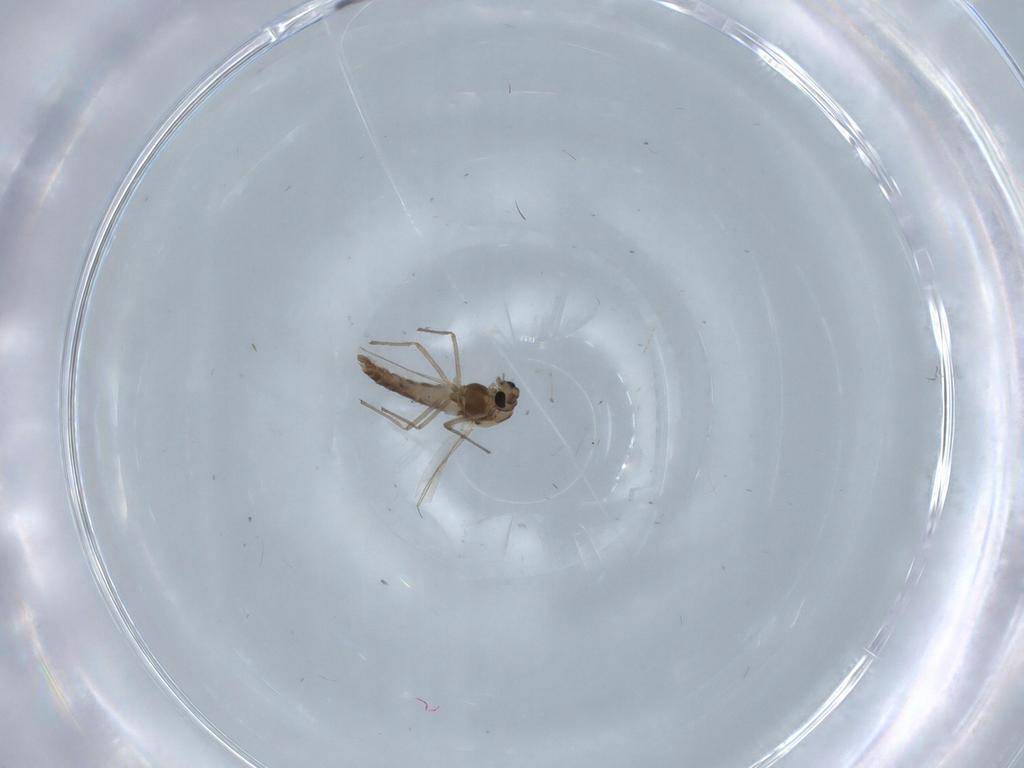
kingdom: Animalia
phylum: Arthropoda
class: Insecta
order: Diptera
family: Chironomidae
